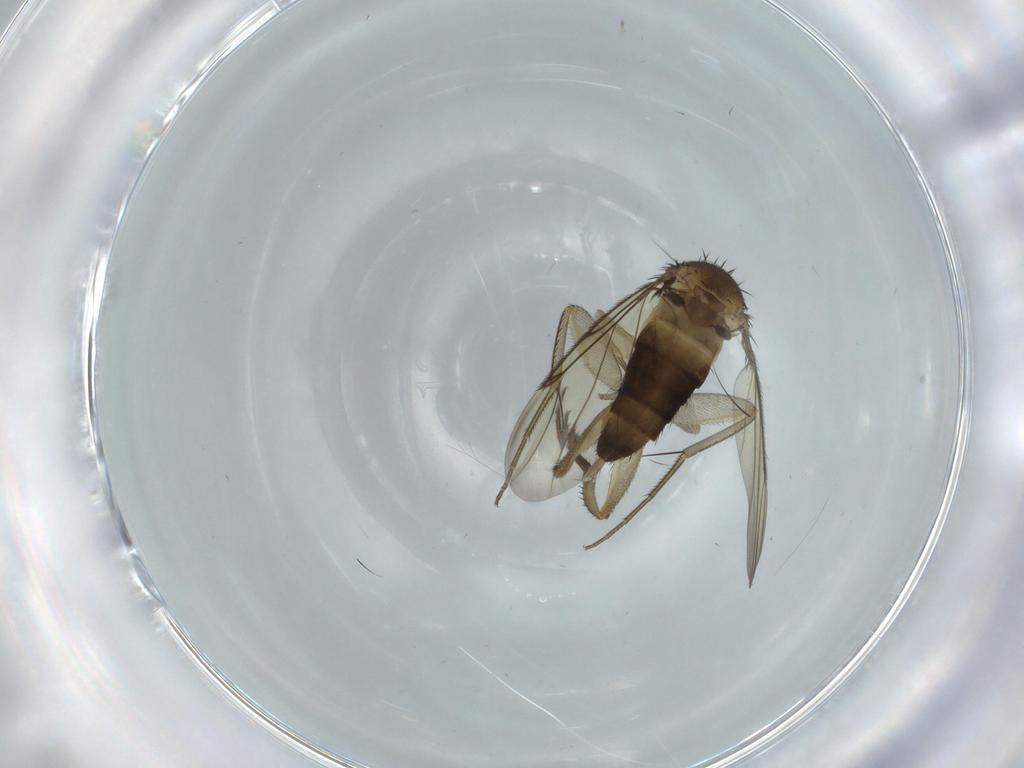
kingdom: Animalia
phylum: Arthropoda
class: Insecta
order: Diptera
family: Phoridae
